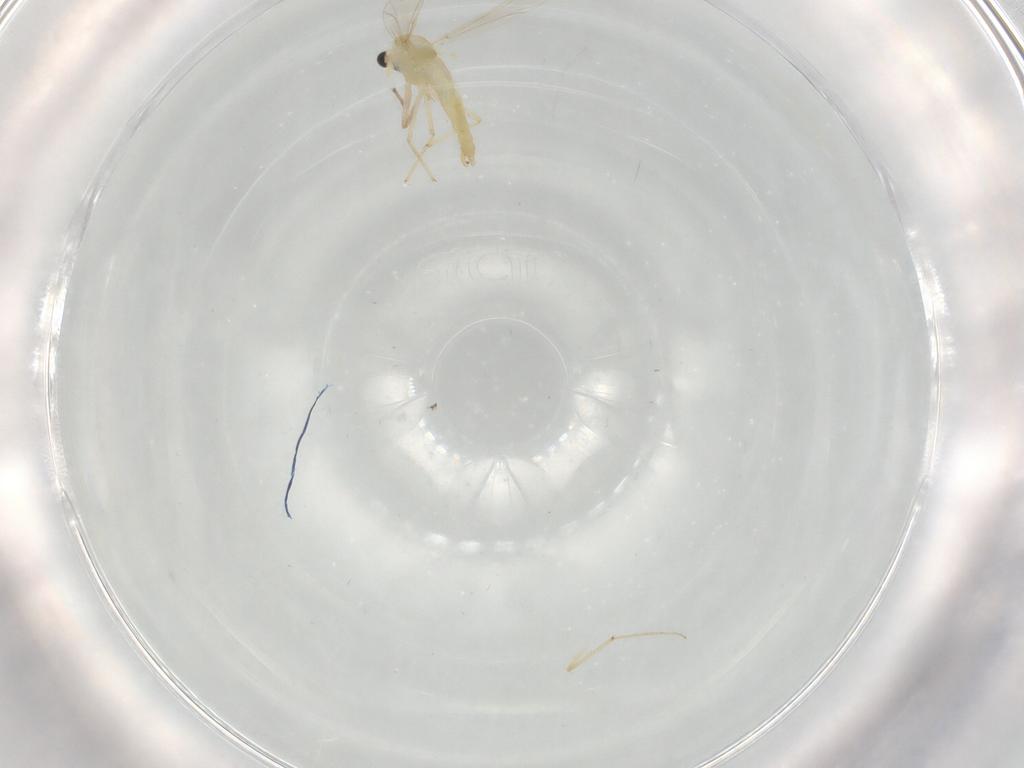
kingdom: Animalia
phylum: Arthropoda
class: Insecta
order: Diptera
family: Chironomidae
